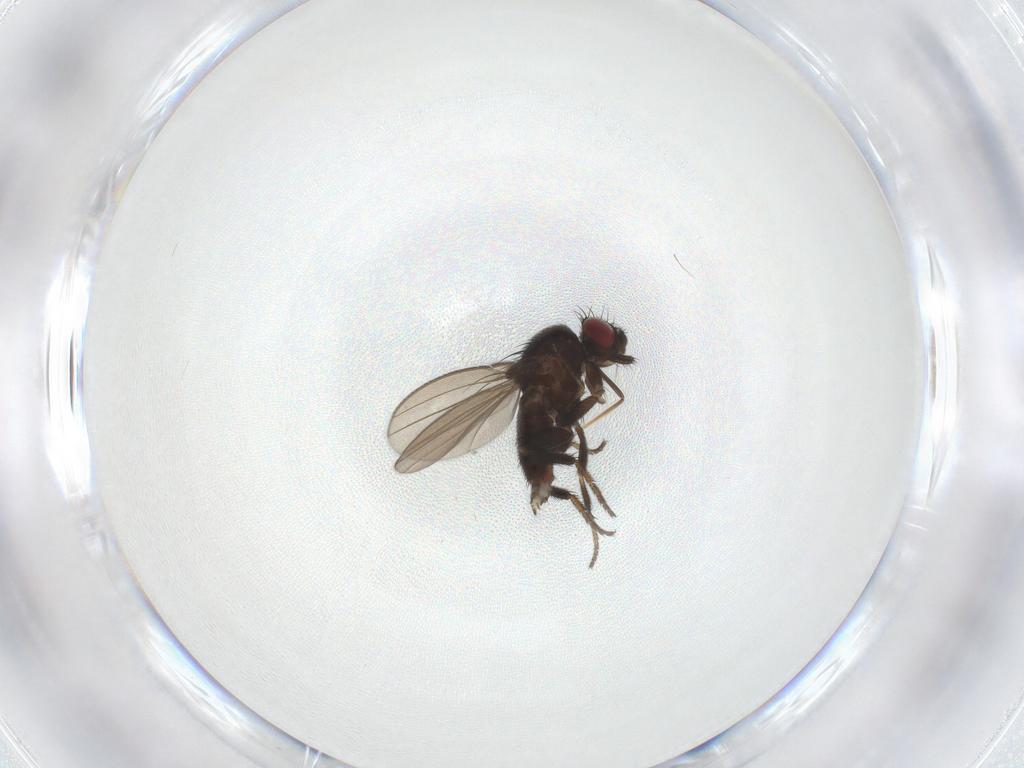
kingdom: Animalia
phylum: Arthropoda
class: Insecta
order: Diptera
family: Milichiidae
